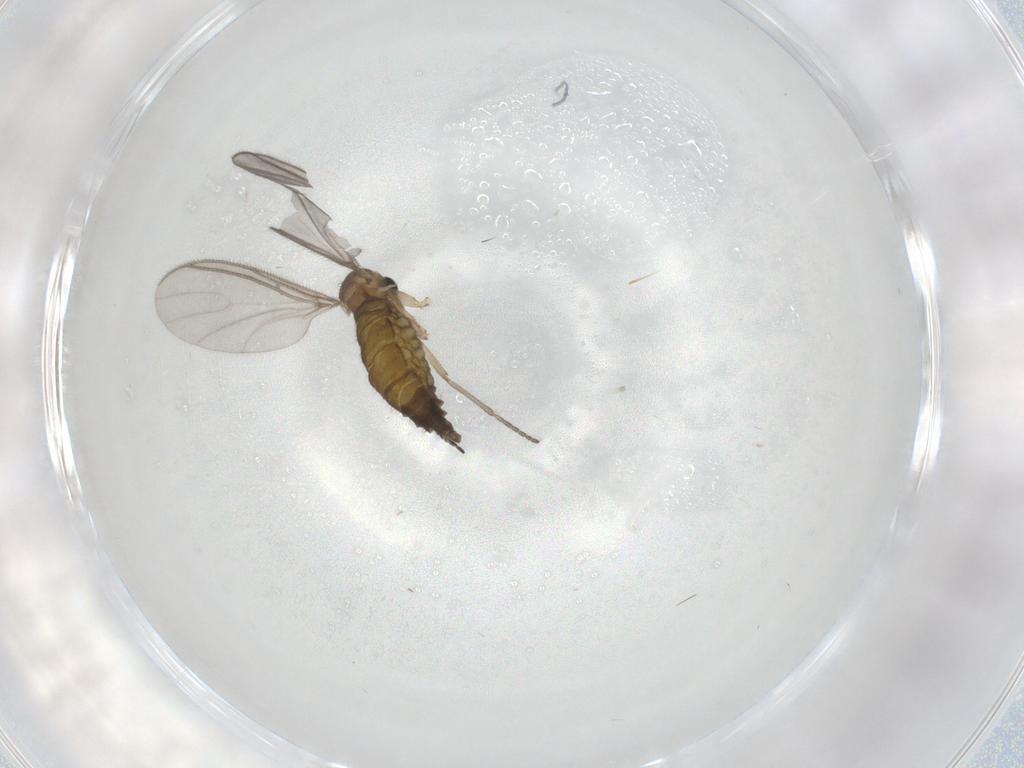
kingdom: Animalia
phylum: Arthropoda
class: Insecta
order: Diptera
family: Sciaridae
